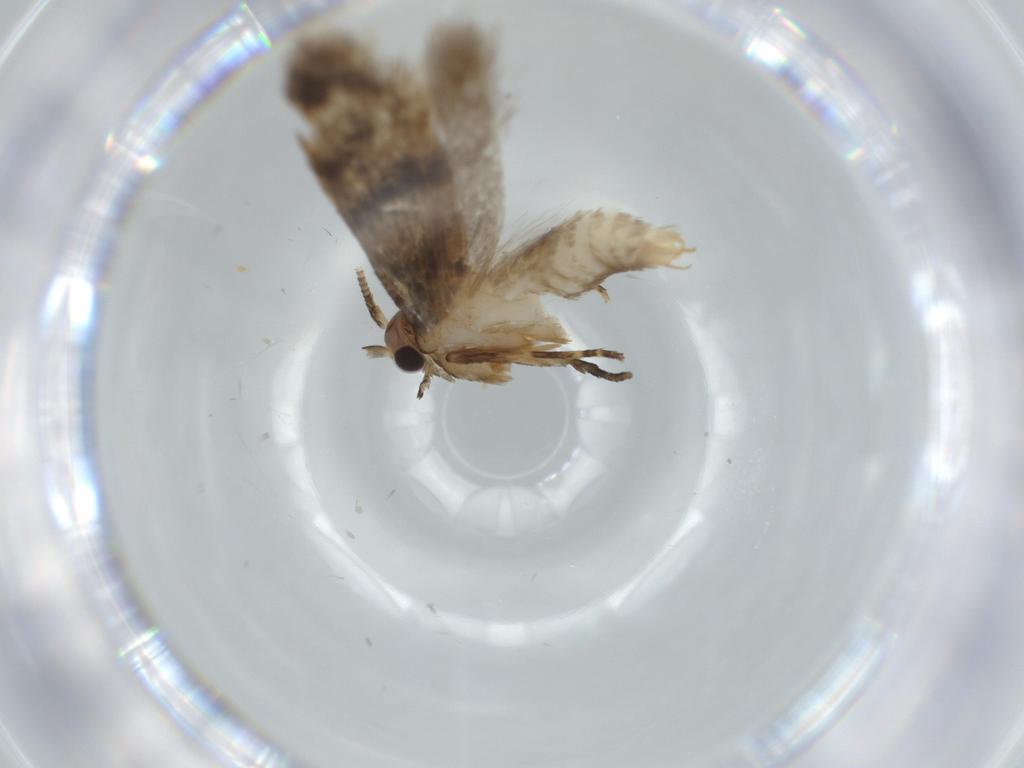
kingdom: Animalia
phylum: Arthropoda
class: Insecta
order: Lepidoptera
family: Tineidae
